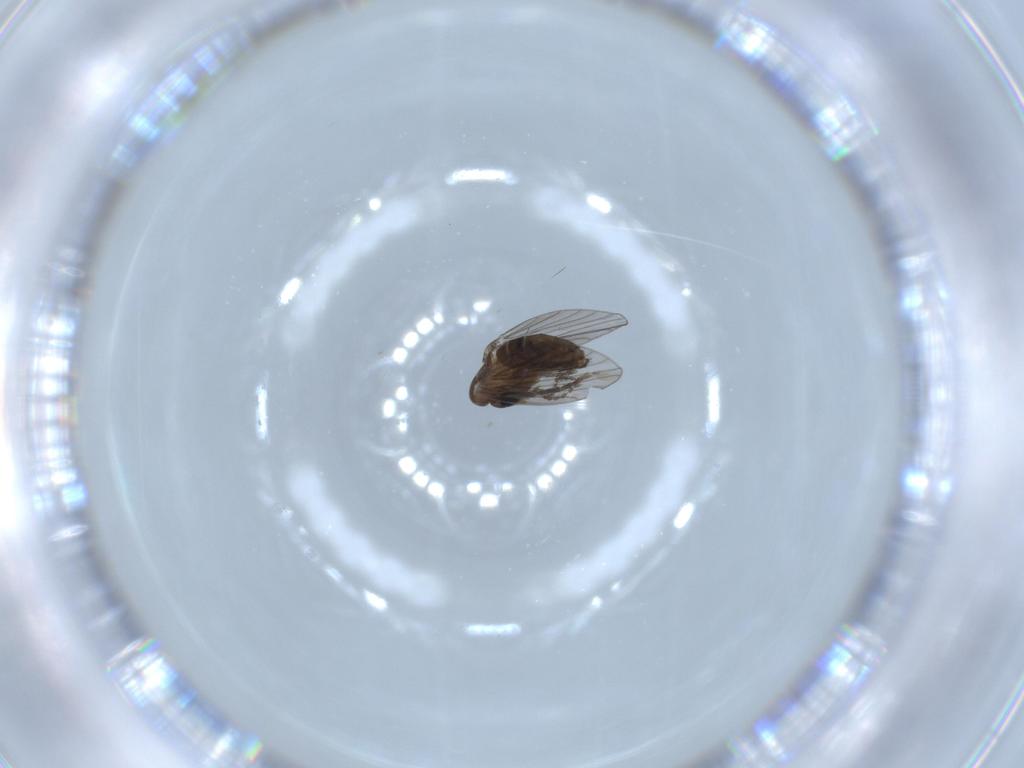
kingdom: Animalia
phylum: Arthropoda
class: Insecta
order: Diptera
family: Psychodidae
